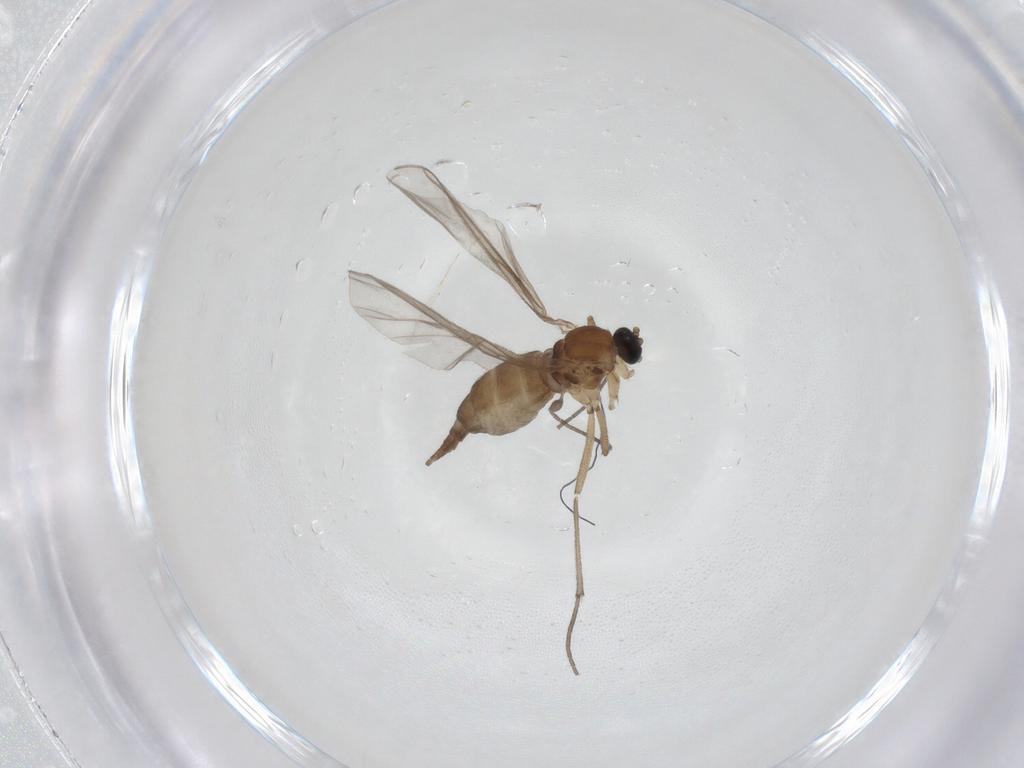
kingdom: Animalia
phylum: Arthropoda
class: Insecta
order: Diptera
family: Sciaridae
